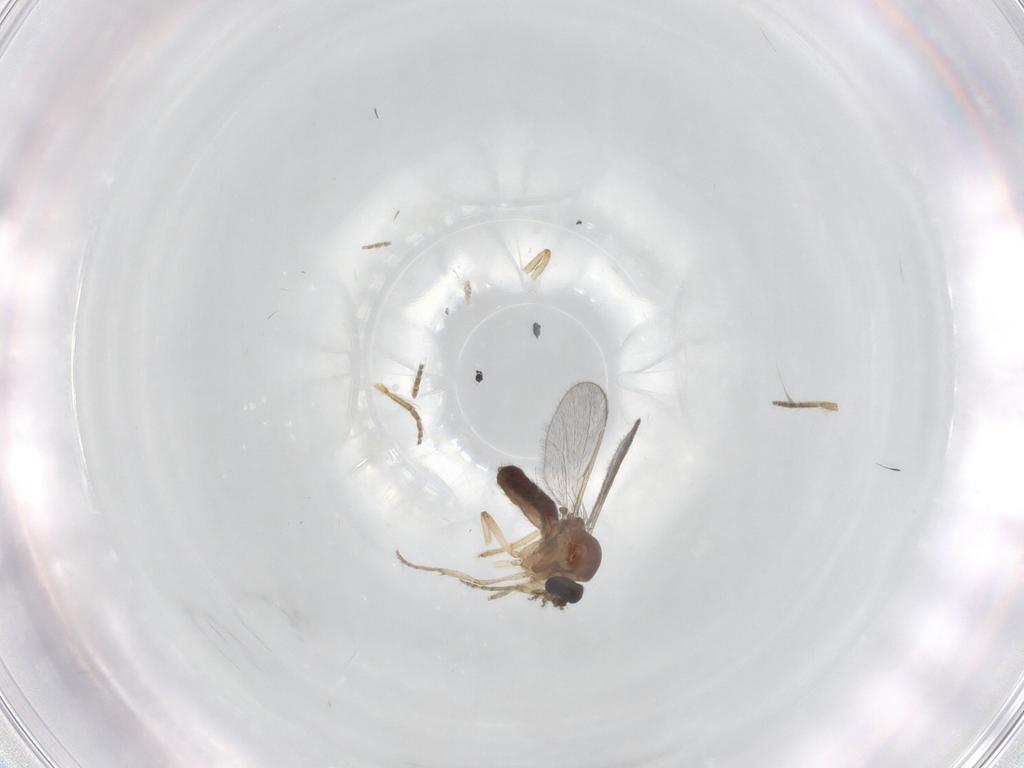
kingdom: Animalia
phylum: Arthropoda
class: Insecta
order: Diptera
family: Ceratopogonidae
